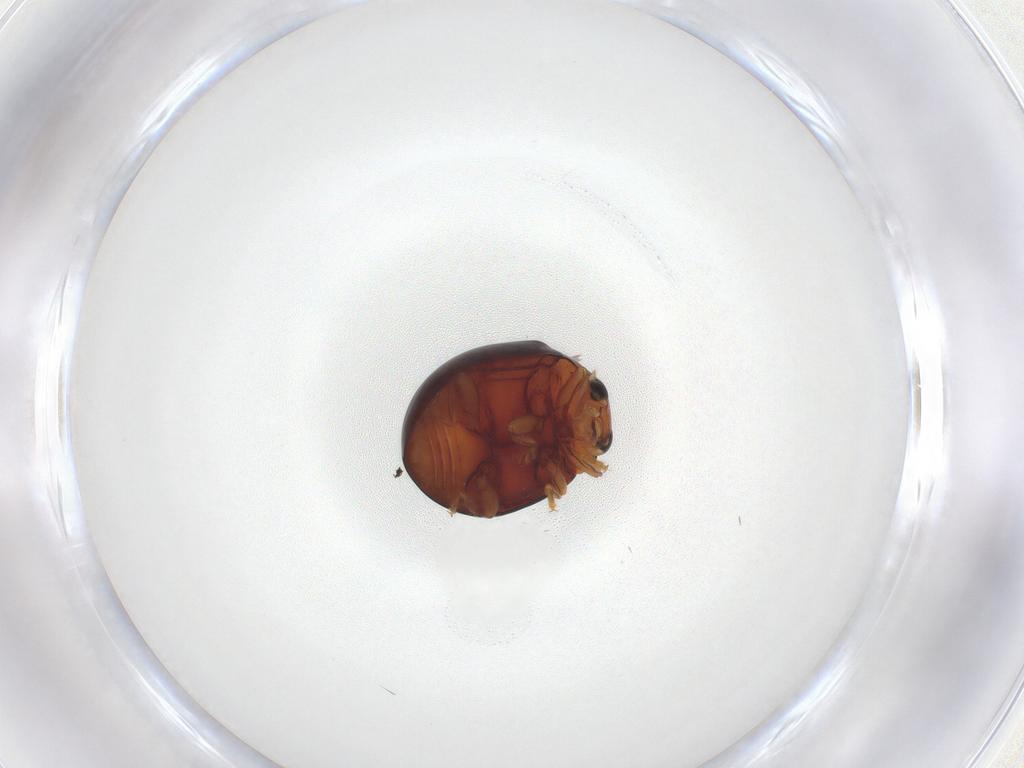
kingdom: Animalia
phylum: Arthropoda
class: Insecta
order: Coleoptera
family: Coccinellidae
